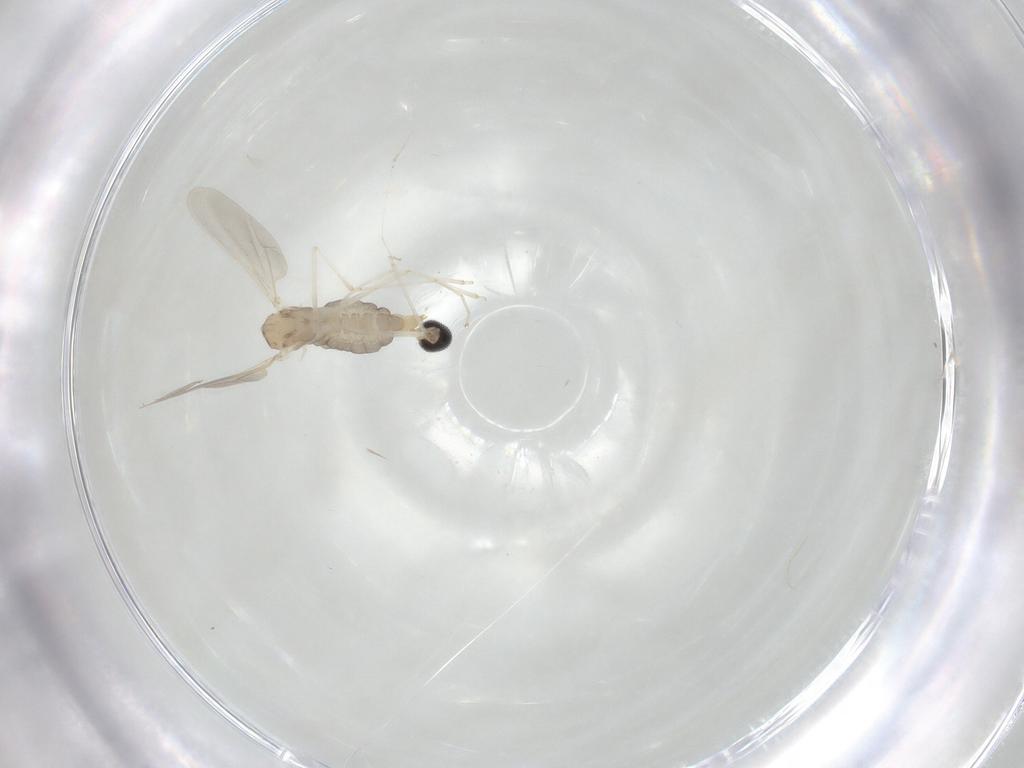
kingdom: Animalia
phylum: Arthropoda
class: Insecta
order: Diptera
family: Cecidomyiidae
